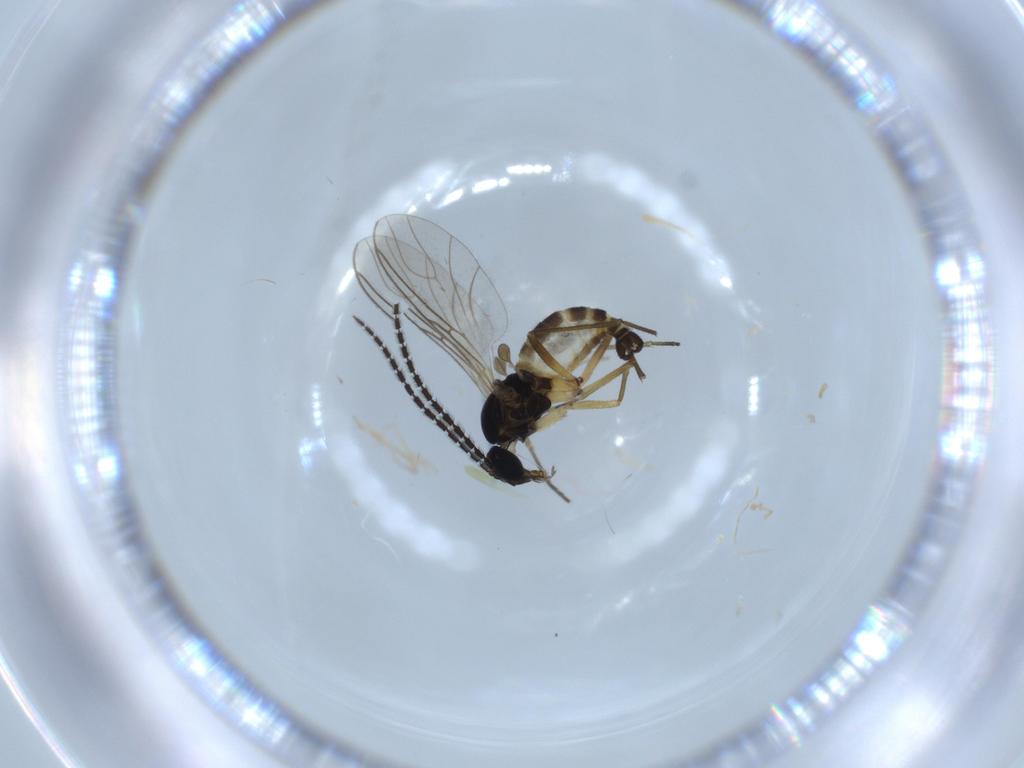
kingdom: Animalia
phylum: Arthropoda
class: Insecta
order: Diptera
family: Sciaridae
